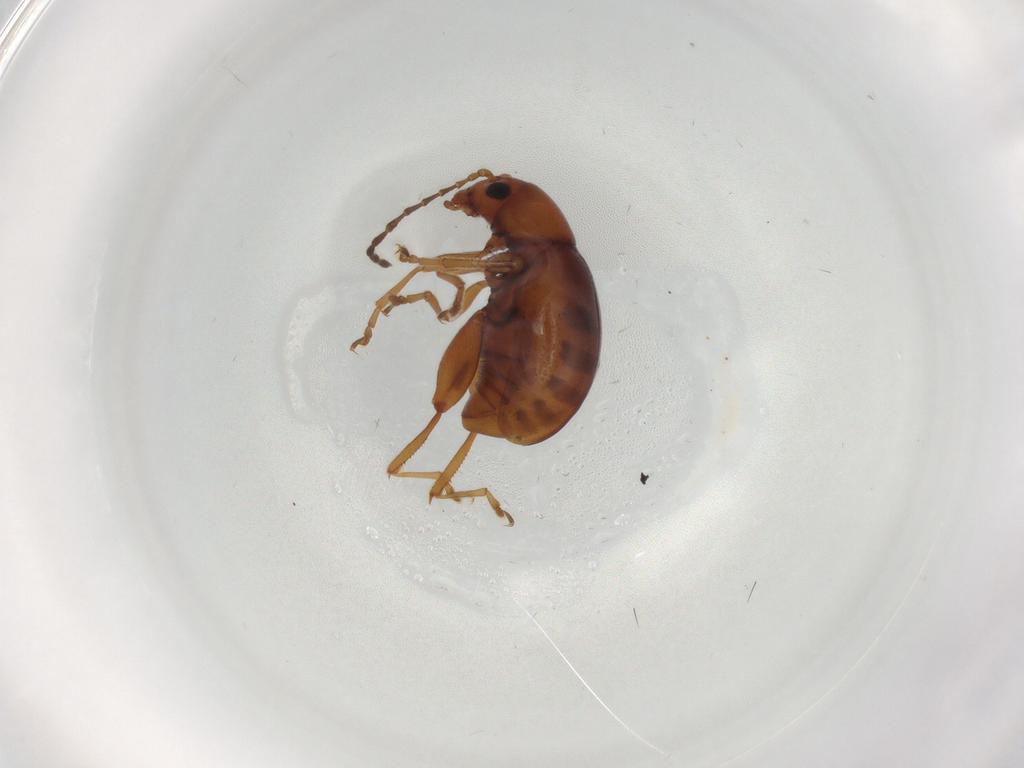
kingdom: Animalia
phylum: Arthropoda
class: Insecta
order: Coleoptera
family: Chrysomelidae
